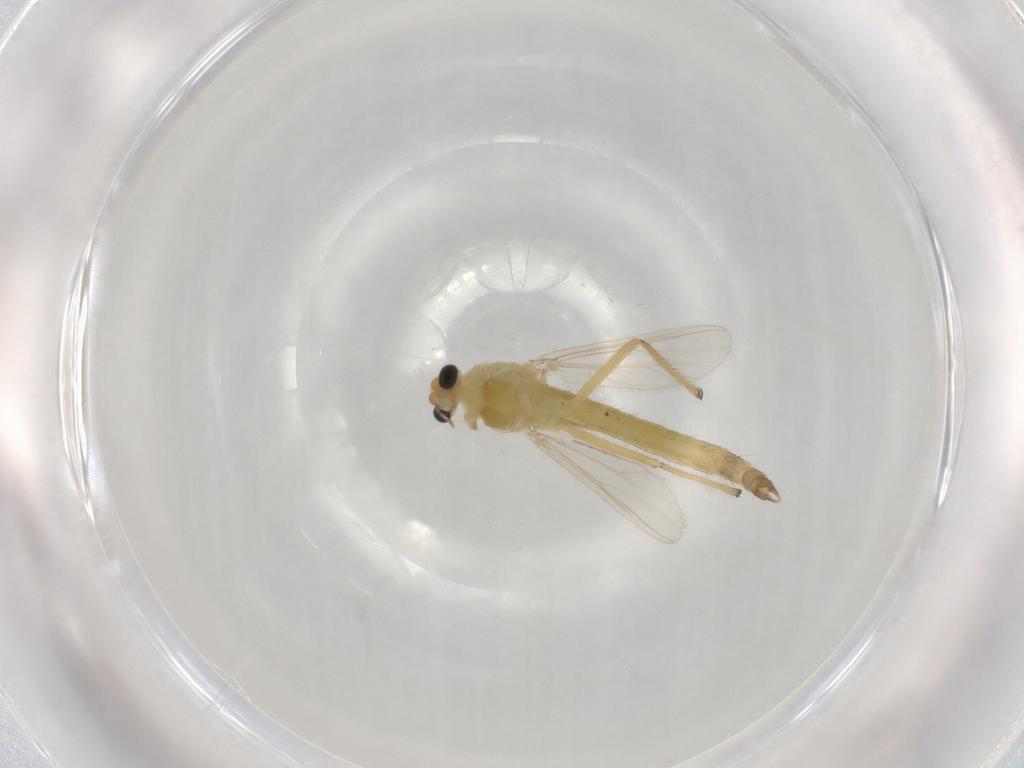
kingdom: Animalia
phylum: Arthropoda
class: Insecta
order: Diptera
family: Chironomidae
